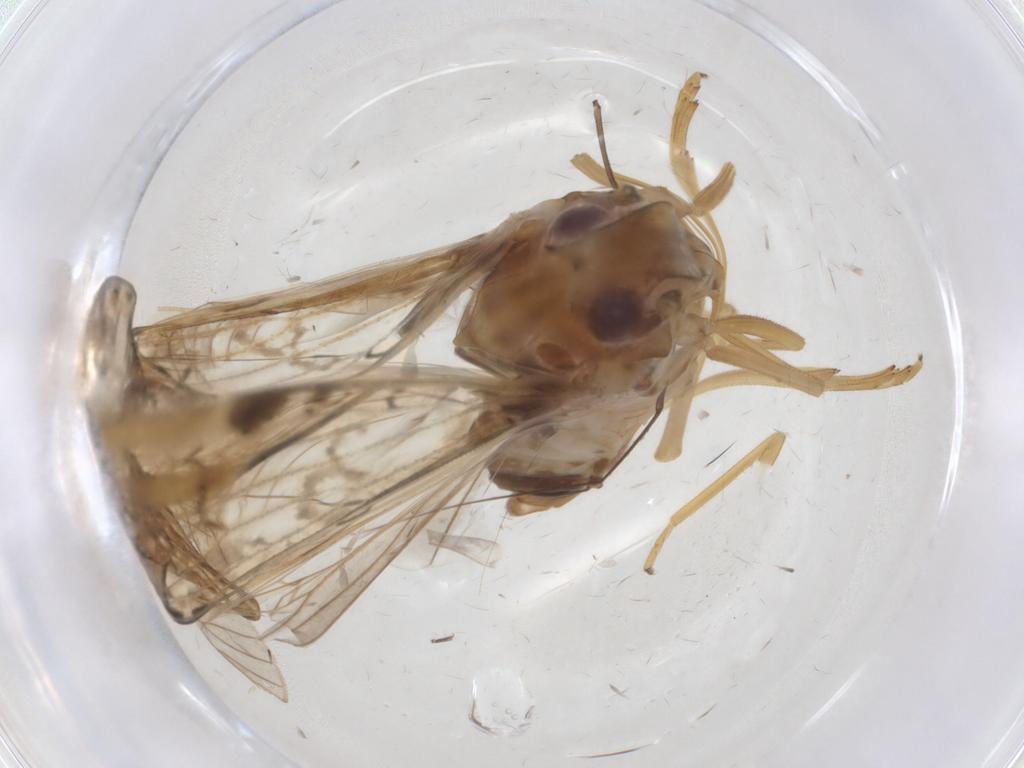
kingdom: Animalia
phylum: Arthropoda
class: Insecta
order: Hemiptera
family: Cixiidae
